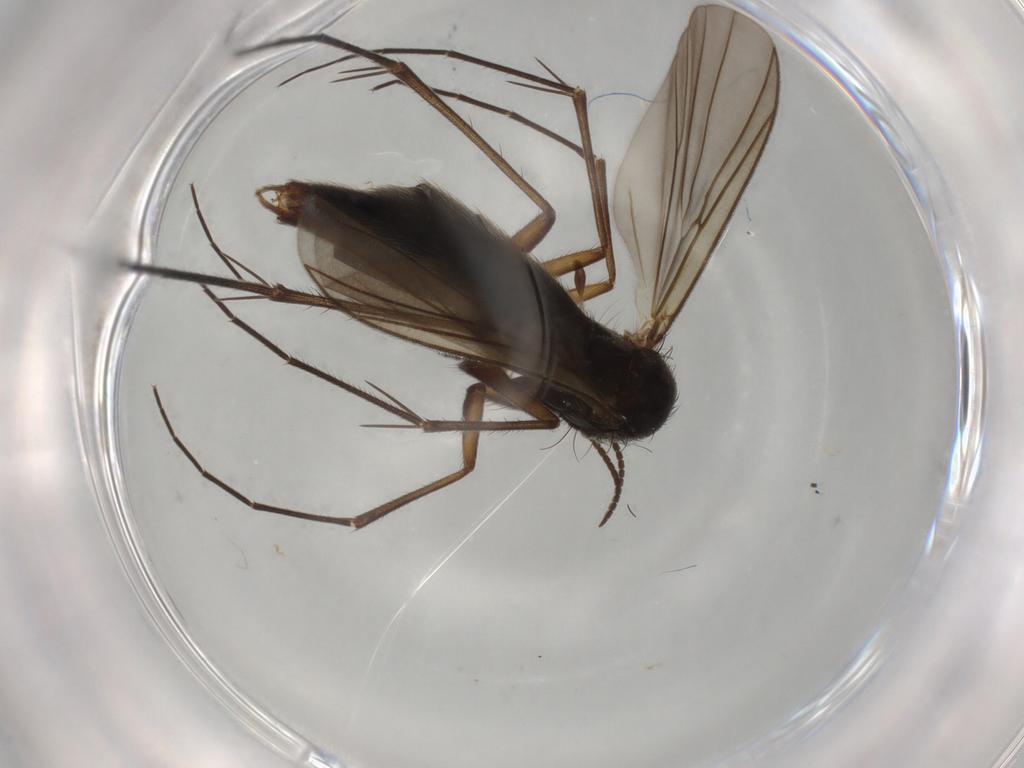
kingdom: Animalia
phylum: Arthropoda
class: Insecta
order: Diptera
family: Mycetophilidae
